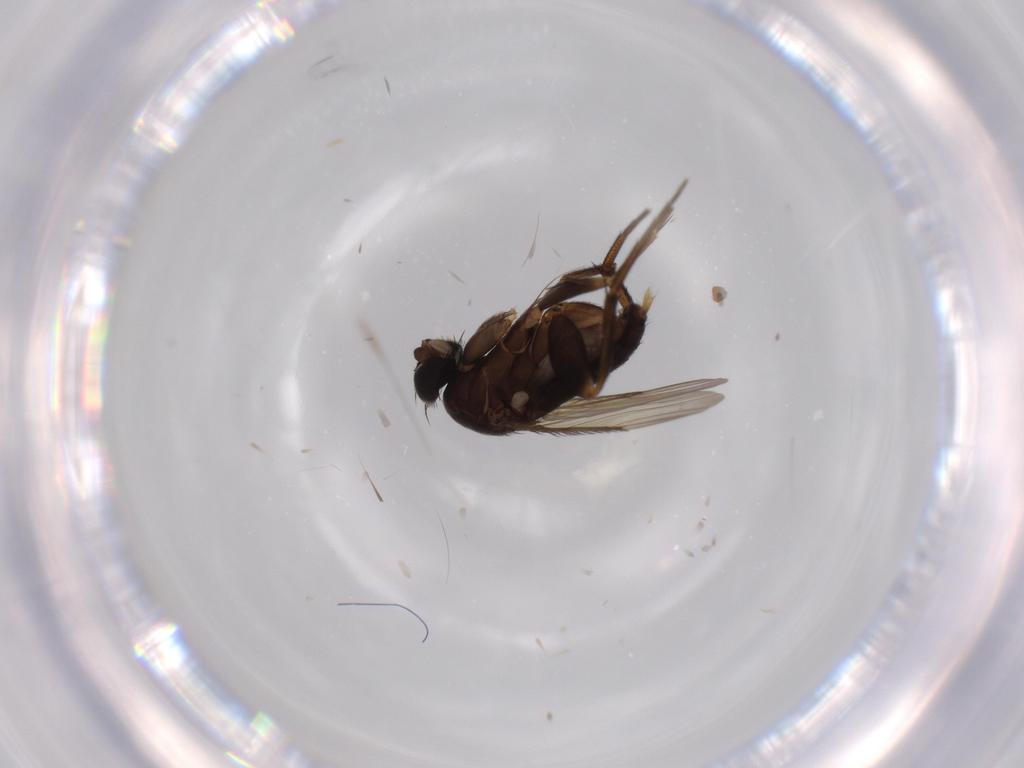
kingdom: Animalia
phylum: Arthropoda
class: Insecta
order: Diptera
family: Phoridae
